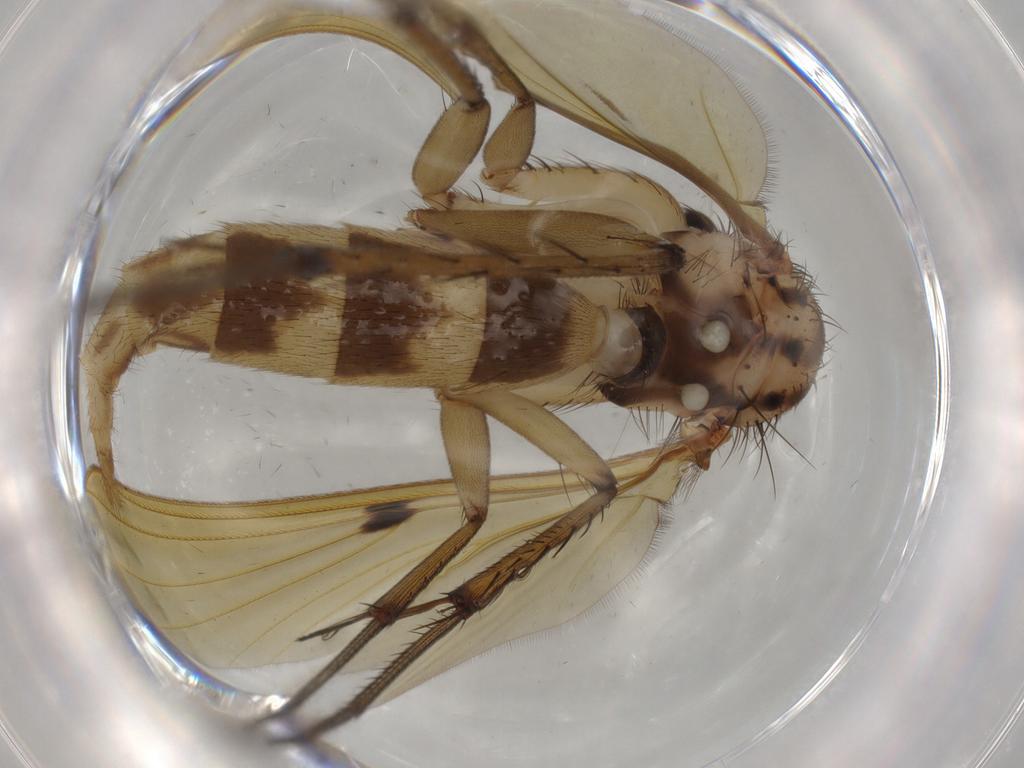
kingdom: Animalia
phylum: Arthropoda
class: Insecta
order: Diptera
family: Cecidomyiidae
